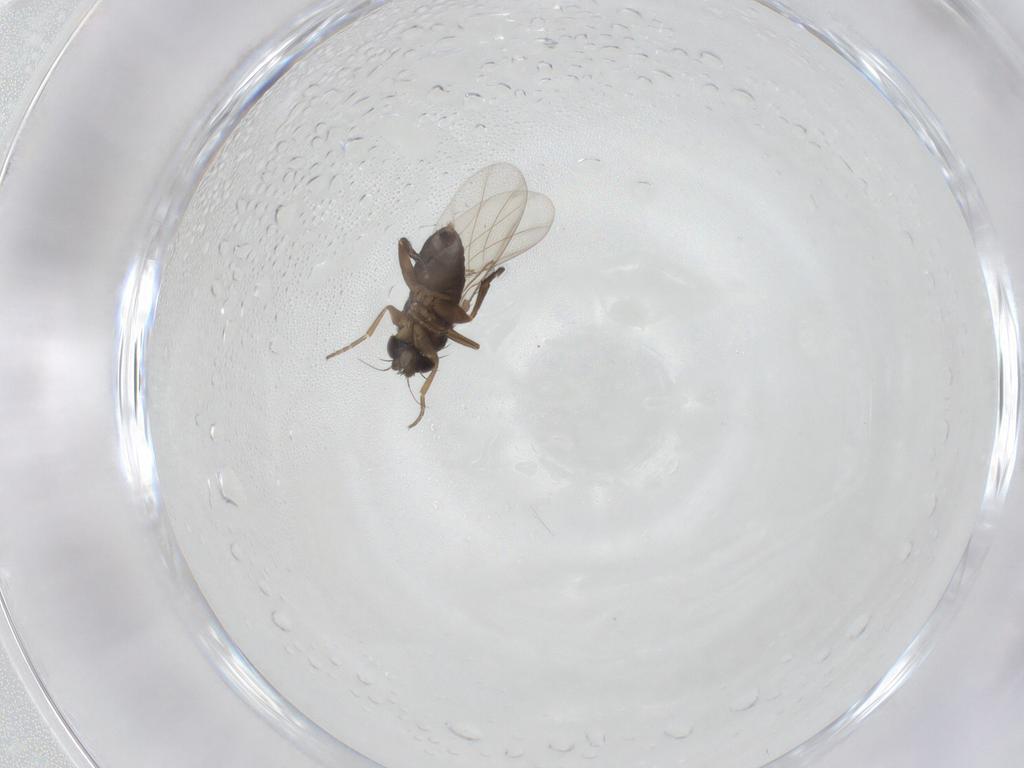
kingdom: Animalia
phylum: Arthropoda
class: Insecta
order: Diptera
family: Phoridae
